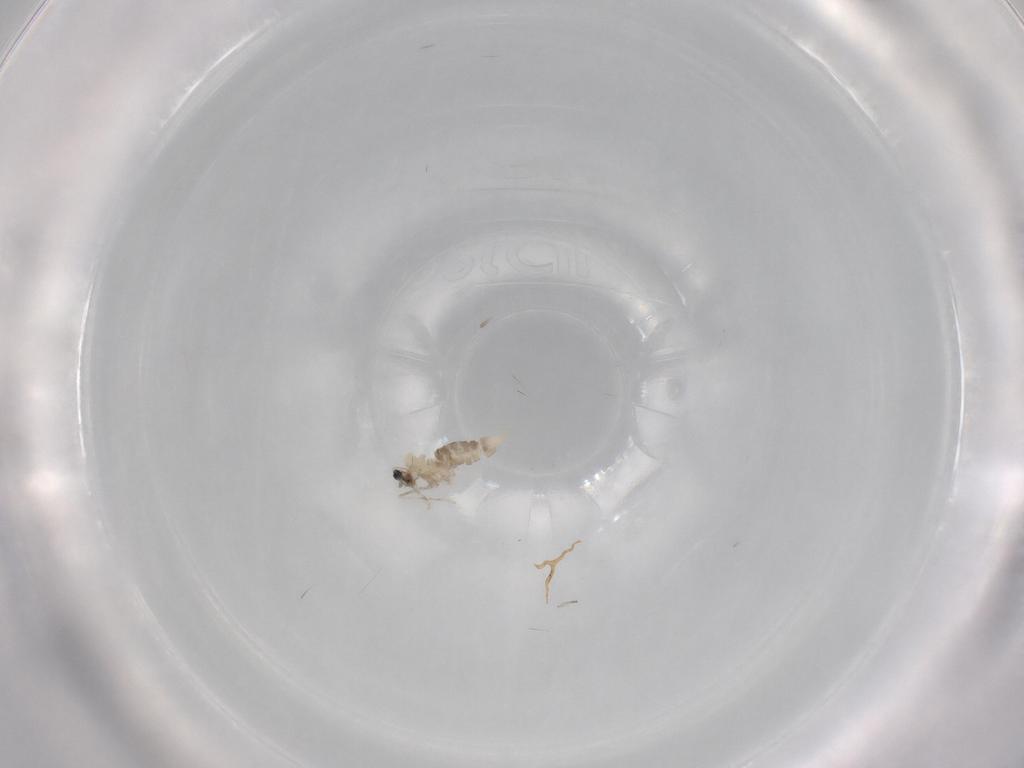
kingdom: Animalia
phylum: Arthropoda
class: Insecta
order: Diptera
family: Cecidomyiidae
